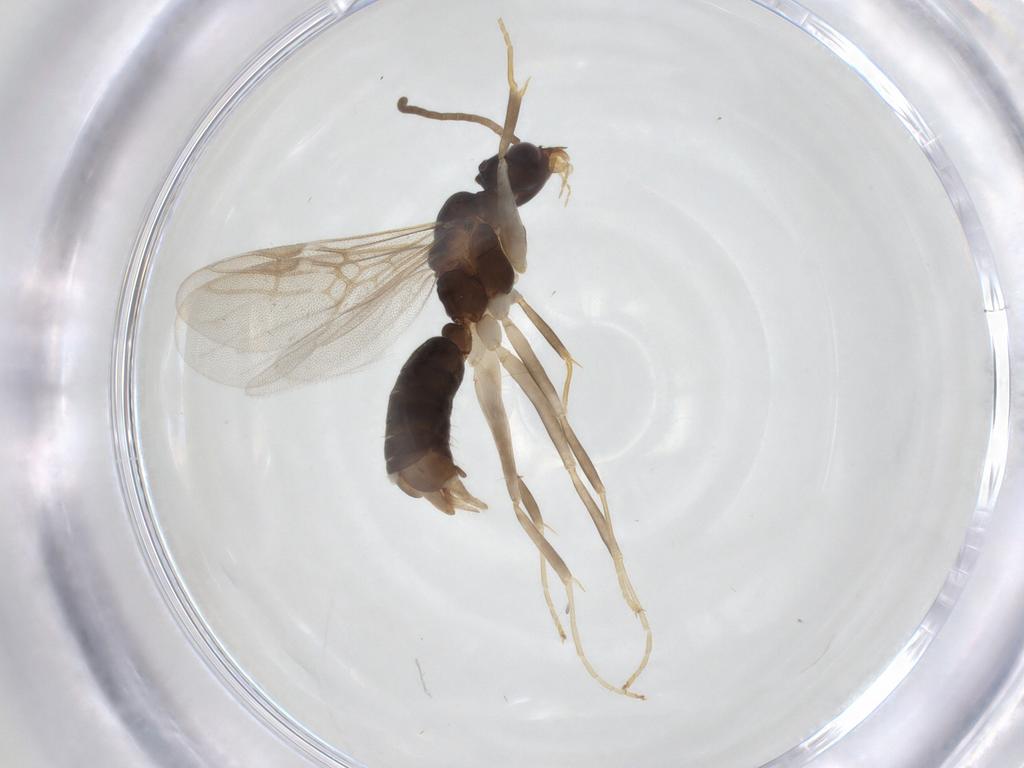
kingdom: Animalia
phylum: Arthropoda
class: Insecta
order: Hymenoptera
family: Formicidae
